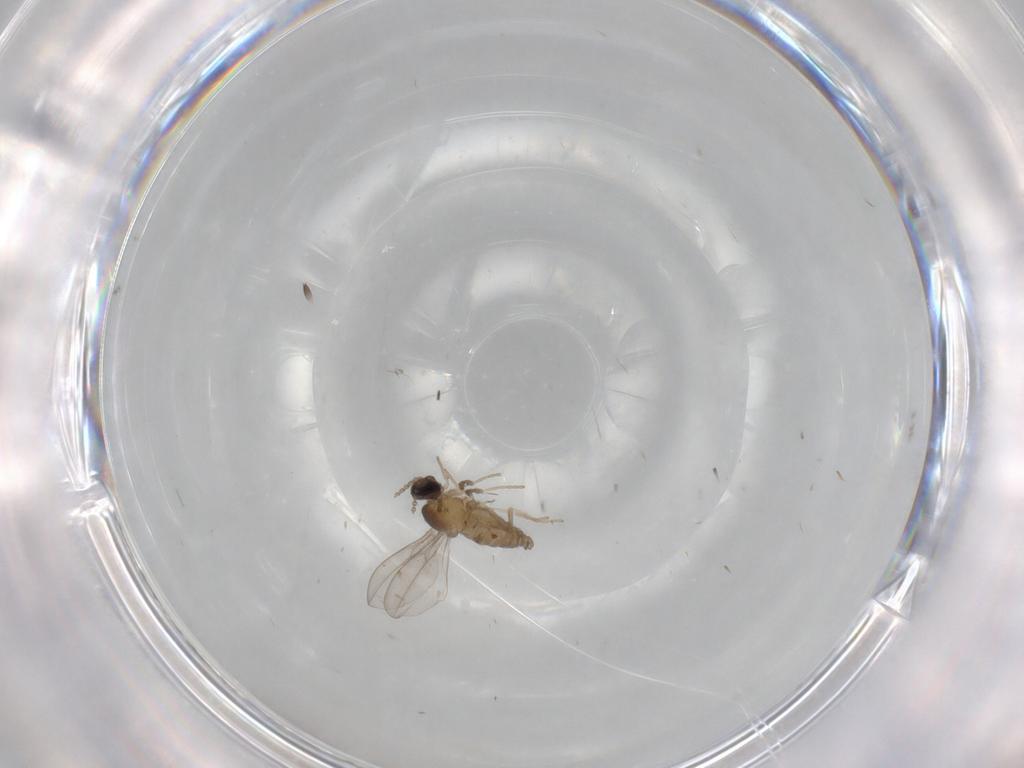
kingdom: Animalia
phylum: Arthropoda
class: Insecta
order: Diptera
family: Cecidomyiidae
